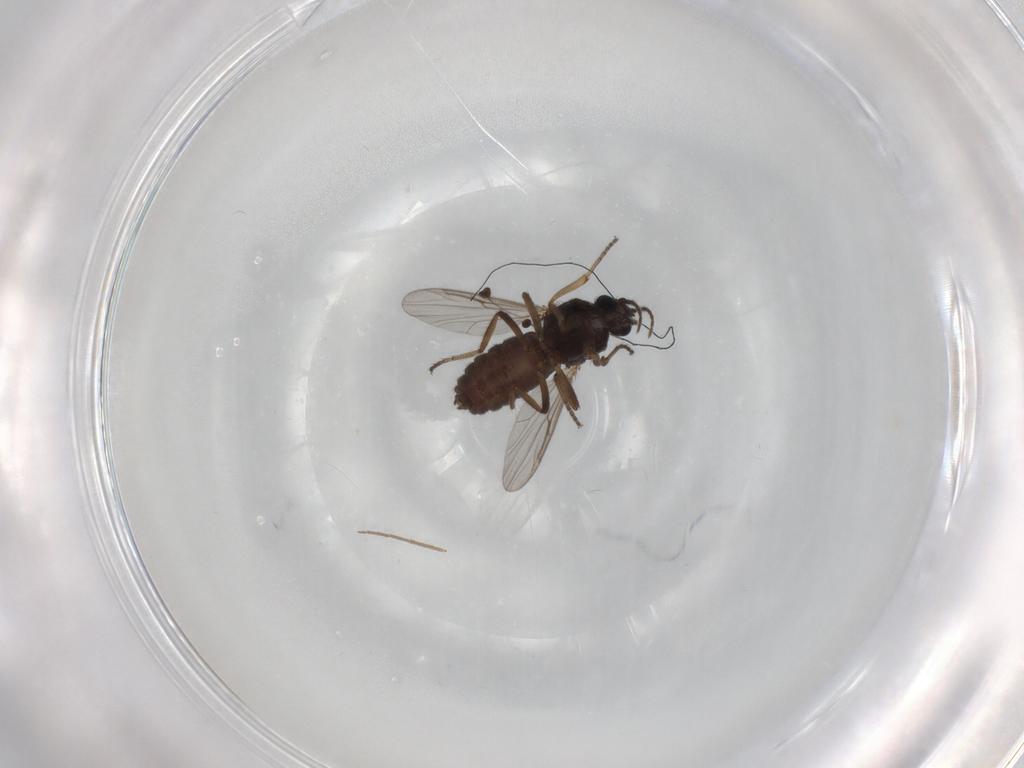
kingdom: Animalia
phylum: Arthropoda
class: Insecta
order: Diptera
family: Ceratopogonidae
